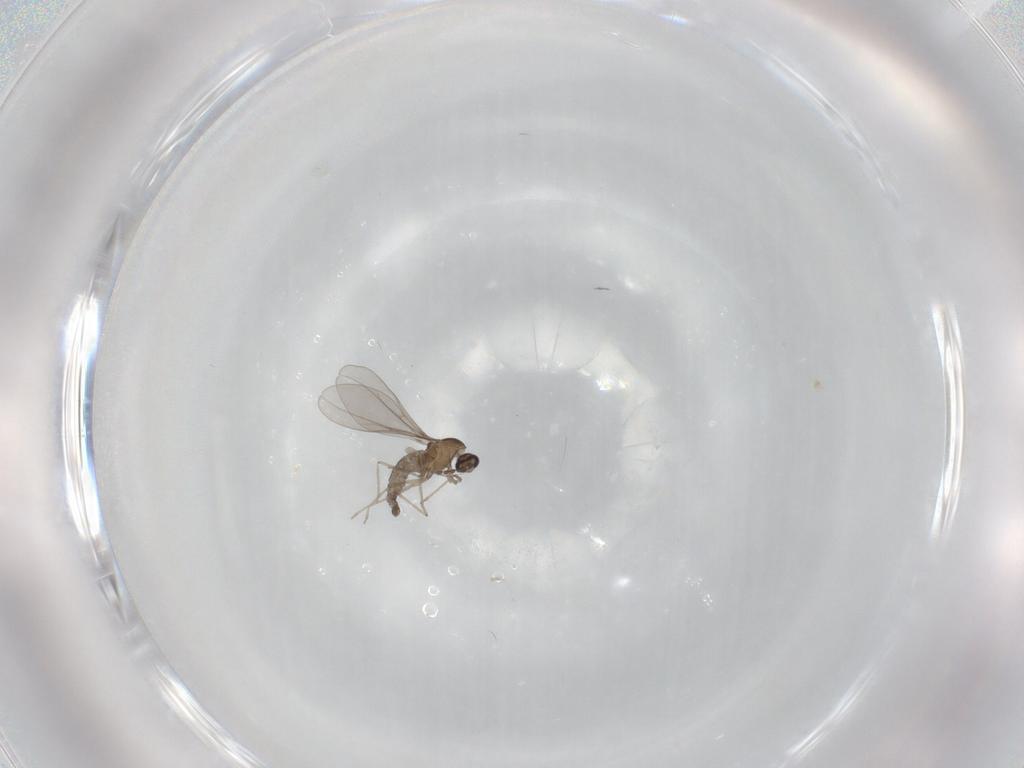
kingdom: Animalia
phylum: Arthropoda
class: Insecta
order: Diptera
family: Cecidomyiidae
